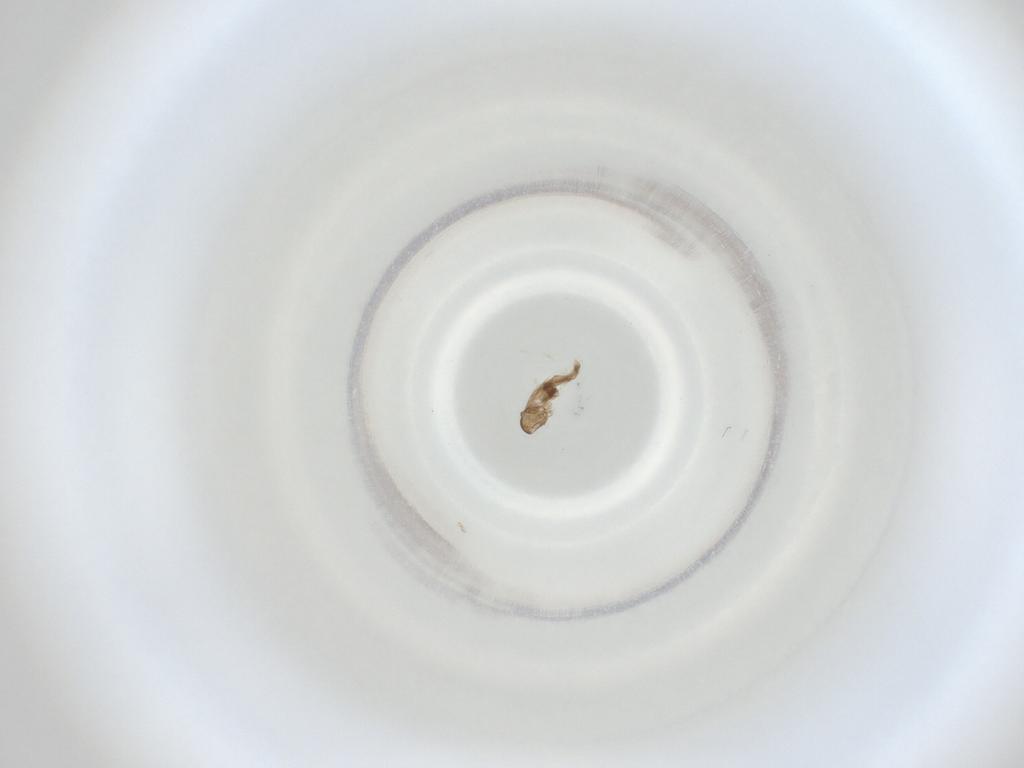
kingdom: Animalia
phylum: Arthropoda
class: Insecta
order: Diptera
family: Cecidomyiidae
